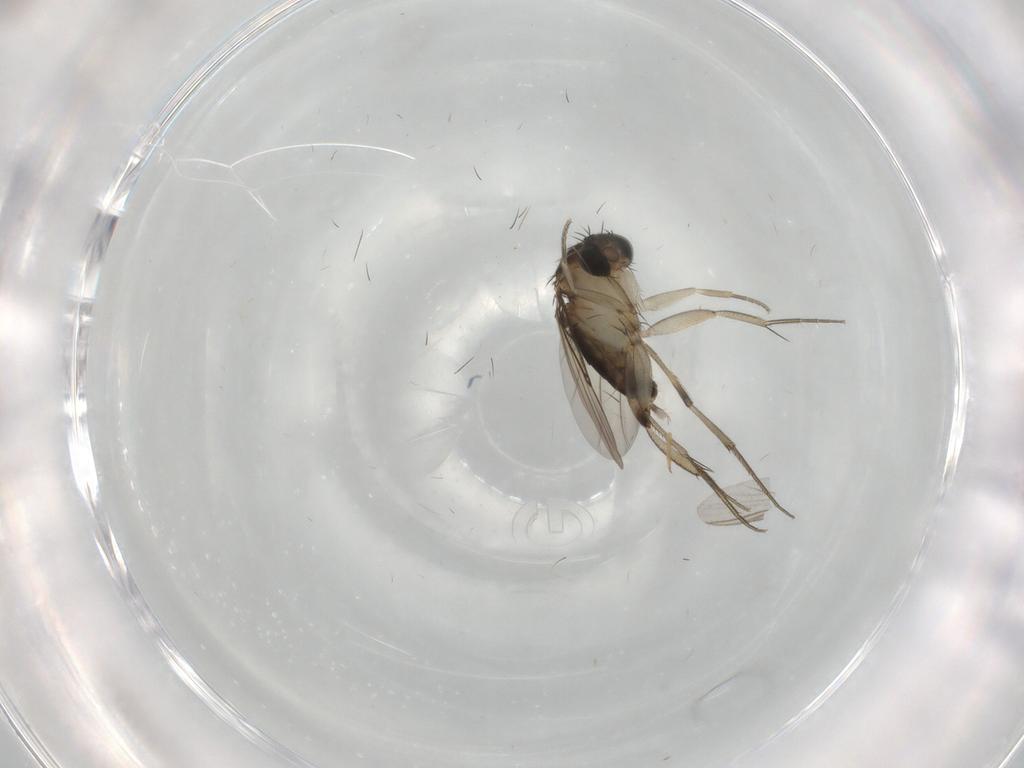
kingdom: Animalia
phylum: Arthropoda
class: Insecta
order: Diptera
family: Phoridae
